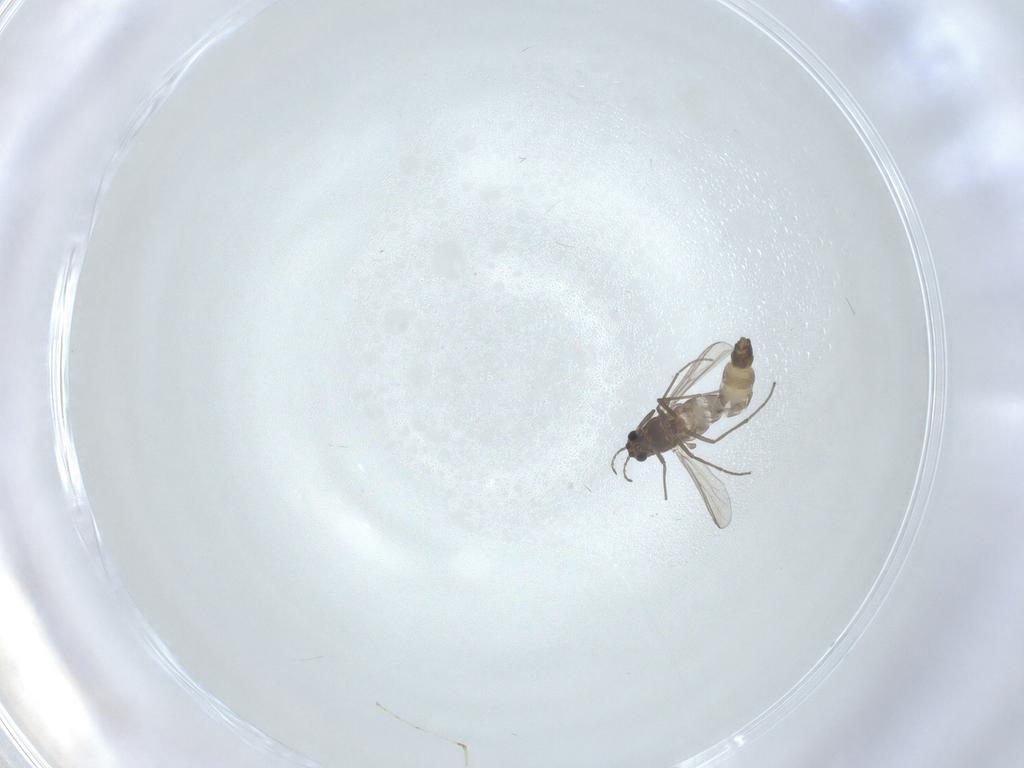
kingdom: Animalia
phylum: Arthropoda
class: Insecta
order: Diptera
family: Chironomidae
